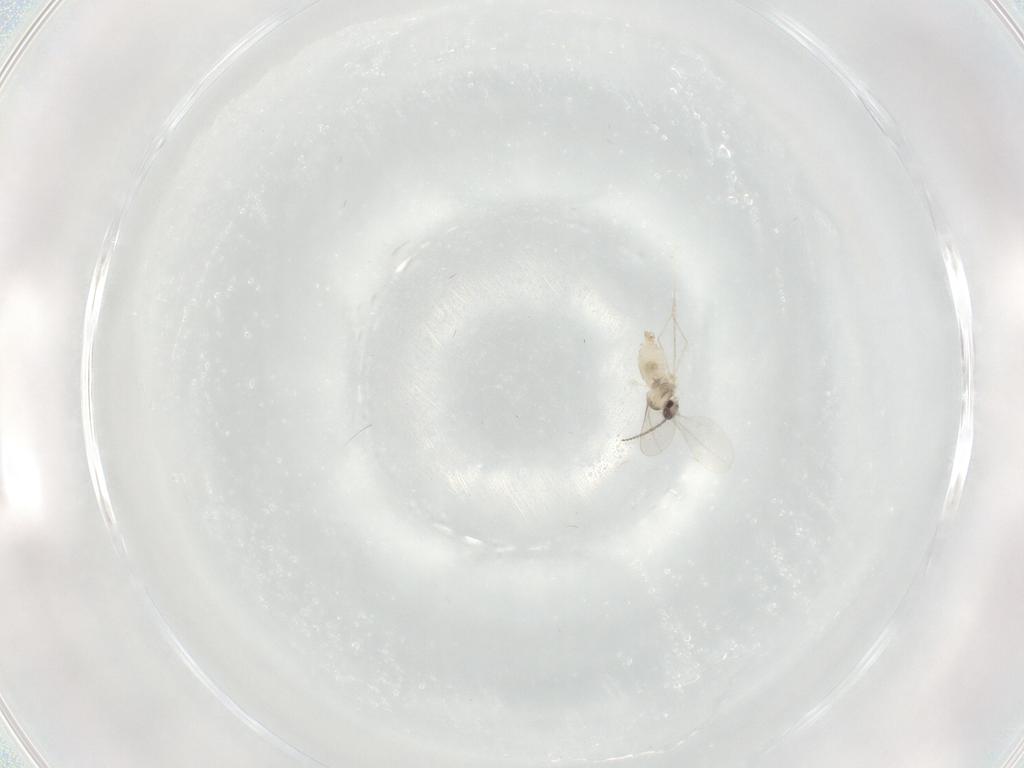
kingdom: Animalia
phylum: Arthropoda
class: Insecta
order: Diptera
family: Cecidomyiidae
